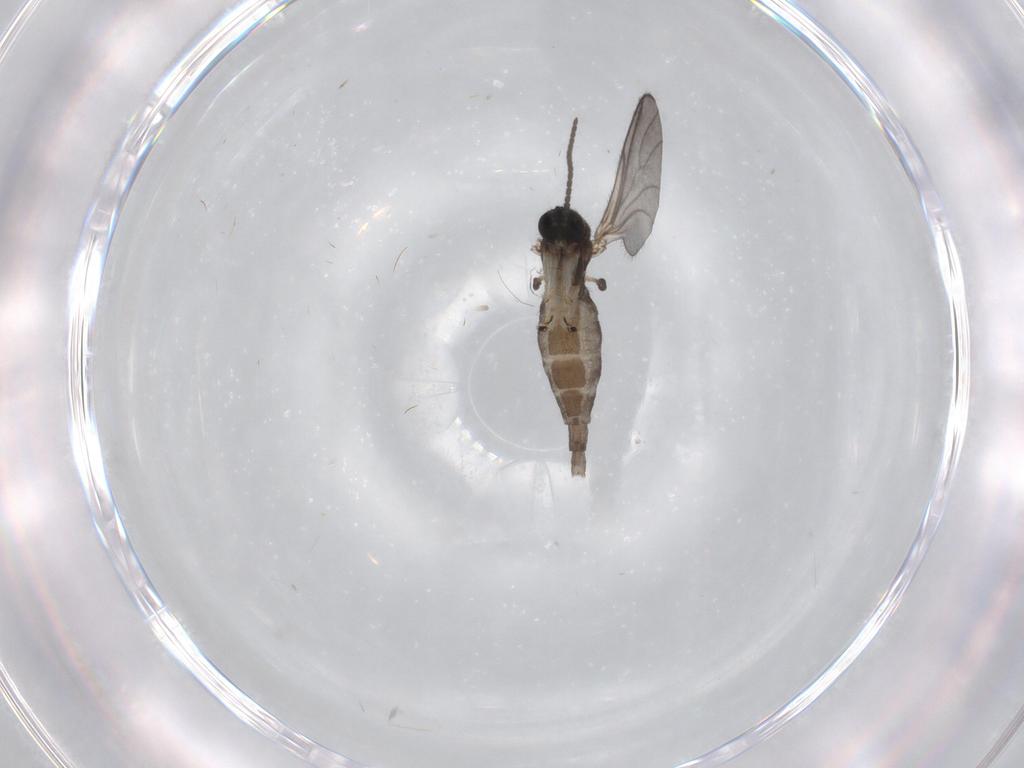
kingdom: Animalia
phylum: Arthropoda
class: Insecta
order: Diptera
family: Sciaridae
